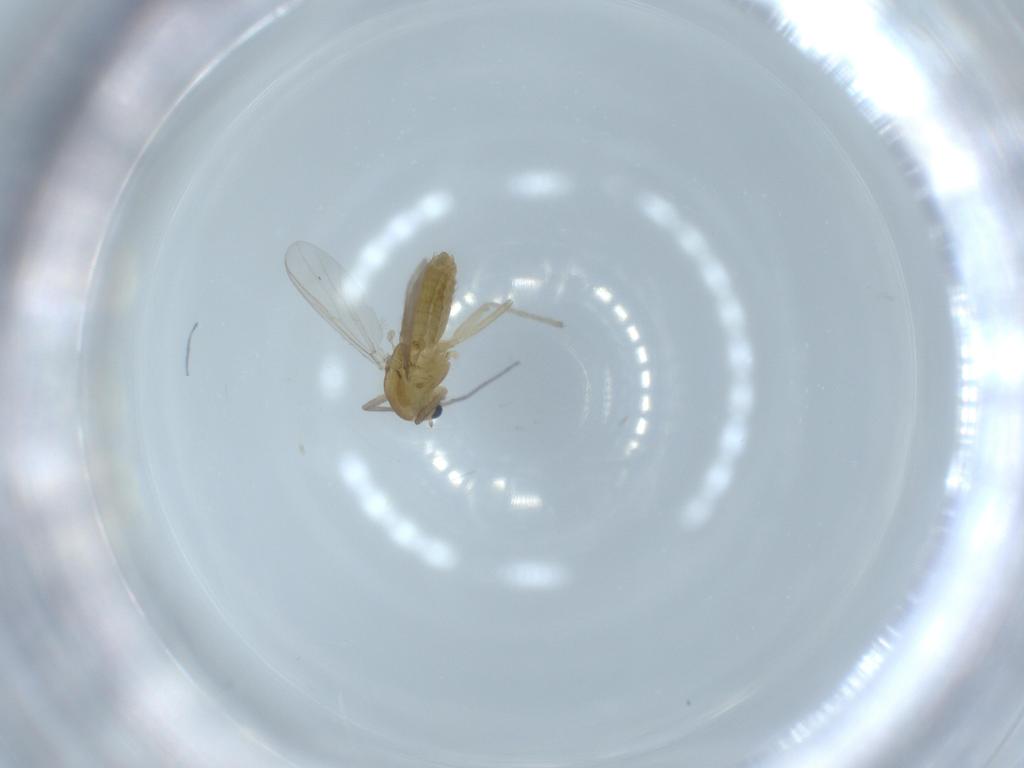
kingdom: Animalia
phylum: Arthropoda
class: Insecta
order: Diptera
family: Chironomidae
